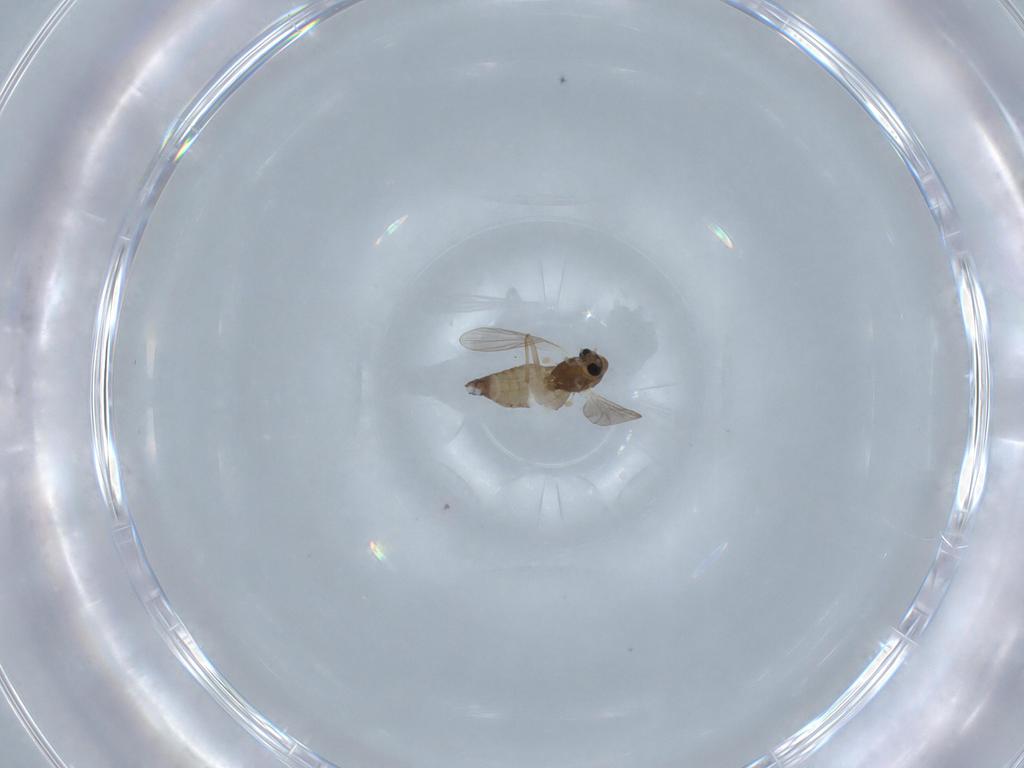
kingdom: Animalia
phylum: Arthropoda
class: Insecta
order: Diptera
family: Chironomidae
